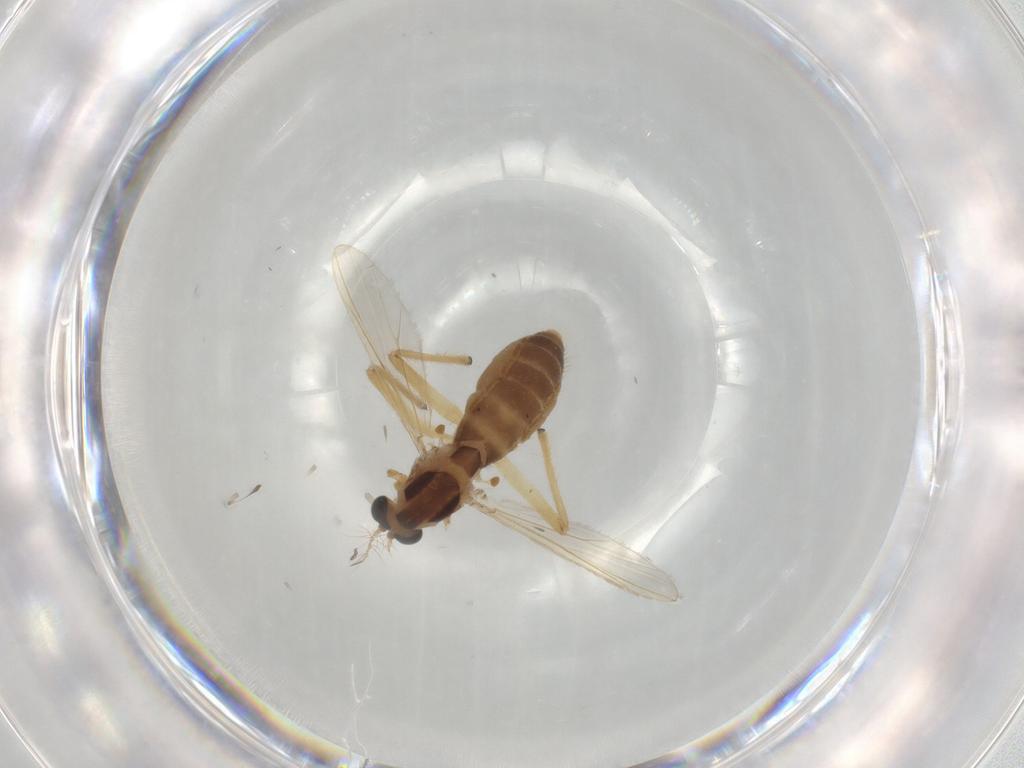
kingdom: Animalia
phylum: Arthropoda
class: Insecta
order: Diptera
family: Chironomidae
